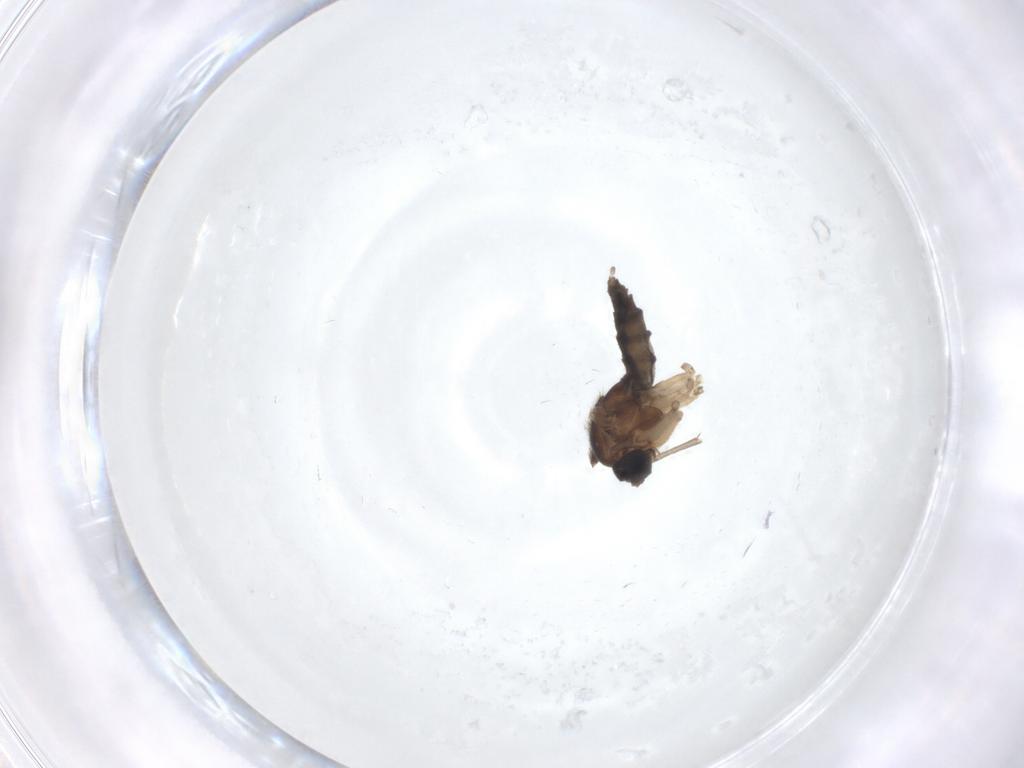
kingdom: Animalia
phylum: Arthropoda
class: Insecta
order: Diptera
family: Sciaridae
